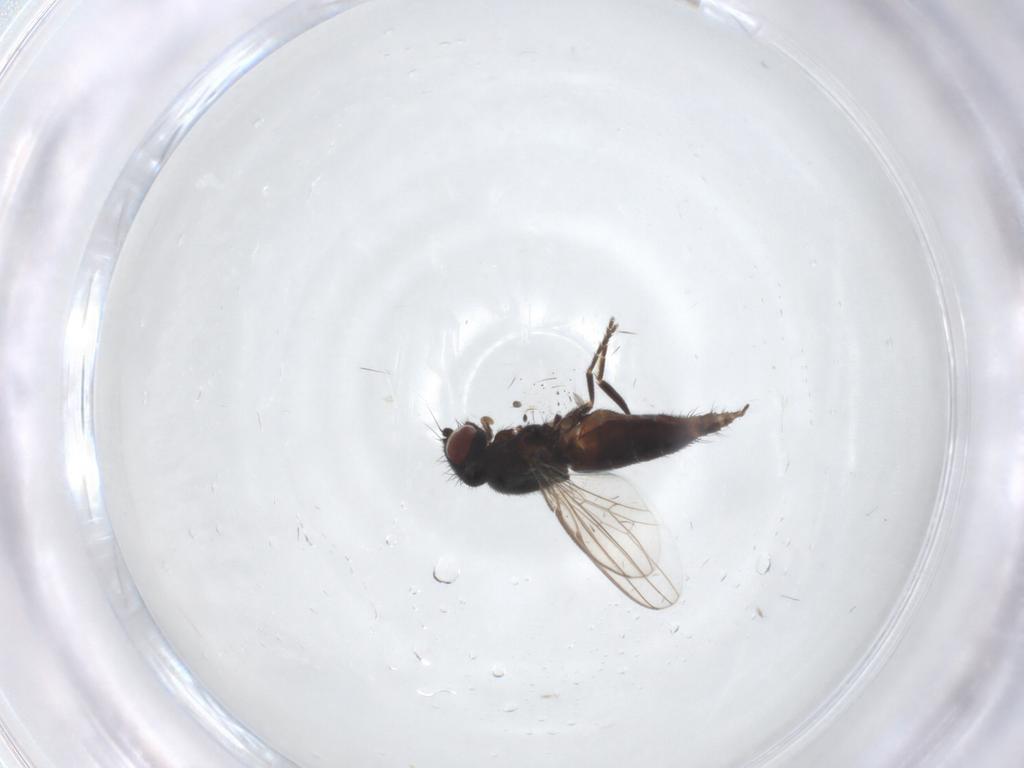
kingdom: Animalia
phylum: Arthropoda
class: Insecta
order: Diptera
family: Milichiidae
